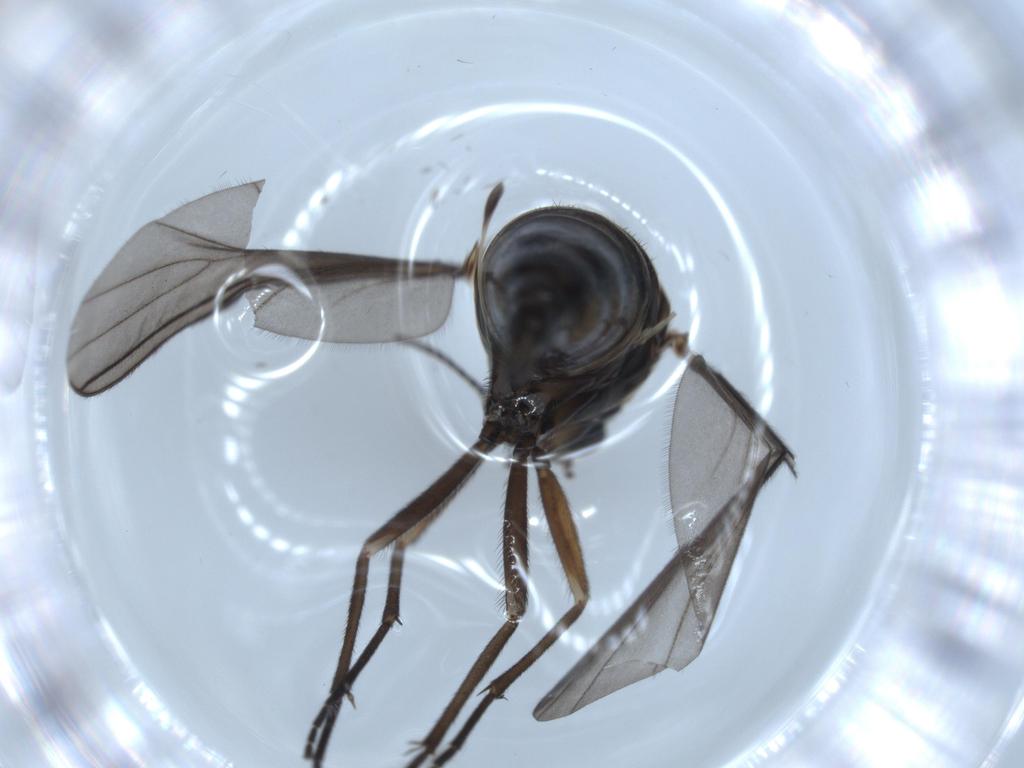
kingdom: Animalia
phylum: Arthropoda
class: Insecta
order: Diptera
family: Sciaridae
